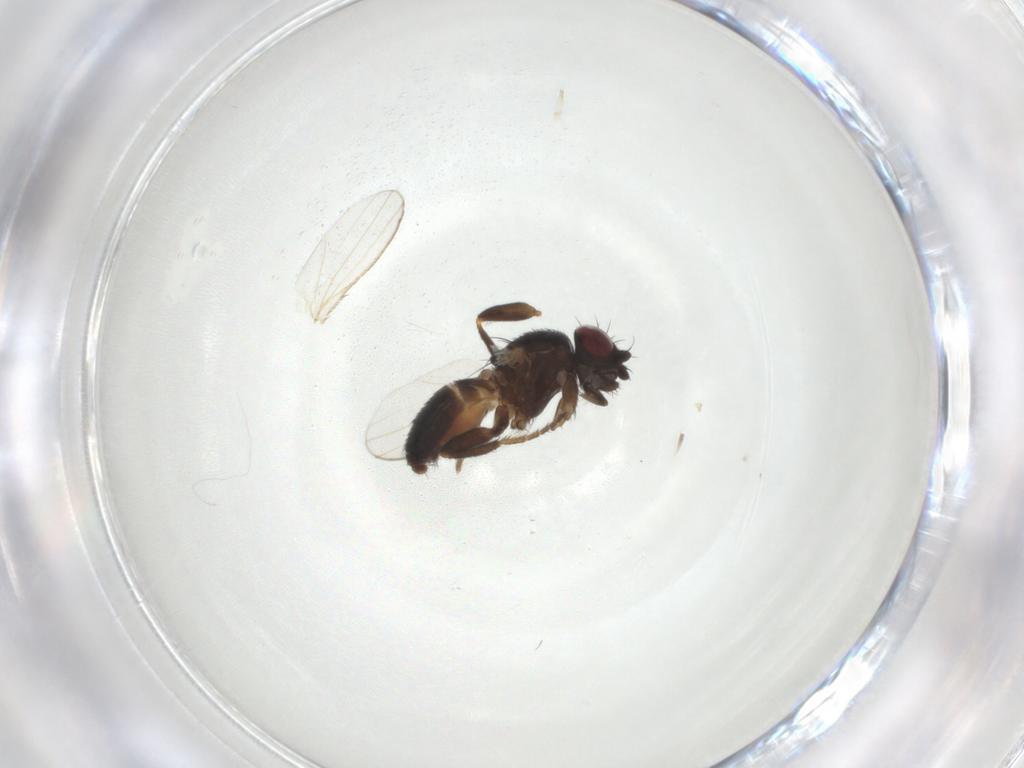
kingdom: Animalia
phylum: Arthropoda
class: Insecta
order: Diptera
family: Milichiidae
